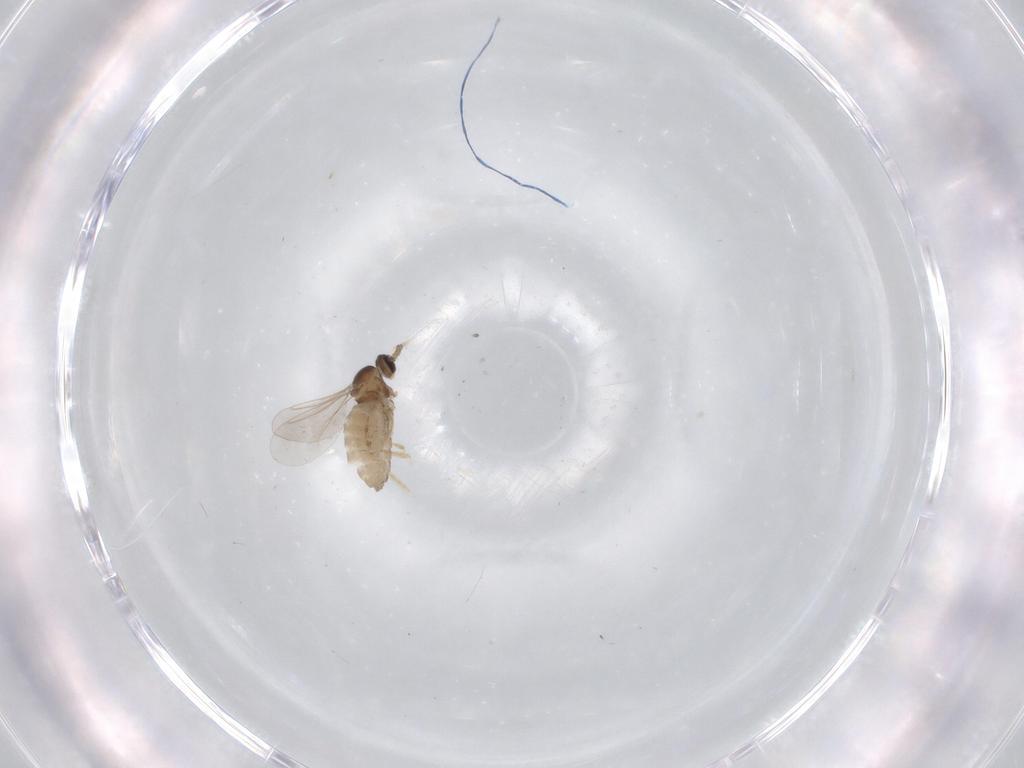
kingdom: Animalia
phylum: Arthropoda
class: Insecta
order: Diptera
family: Cecidomyiidae
